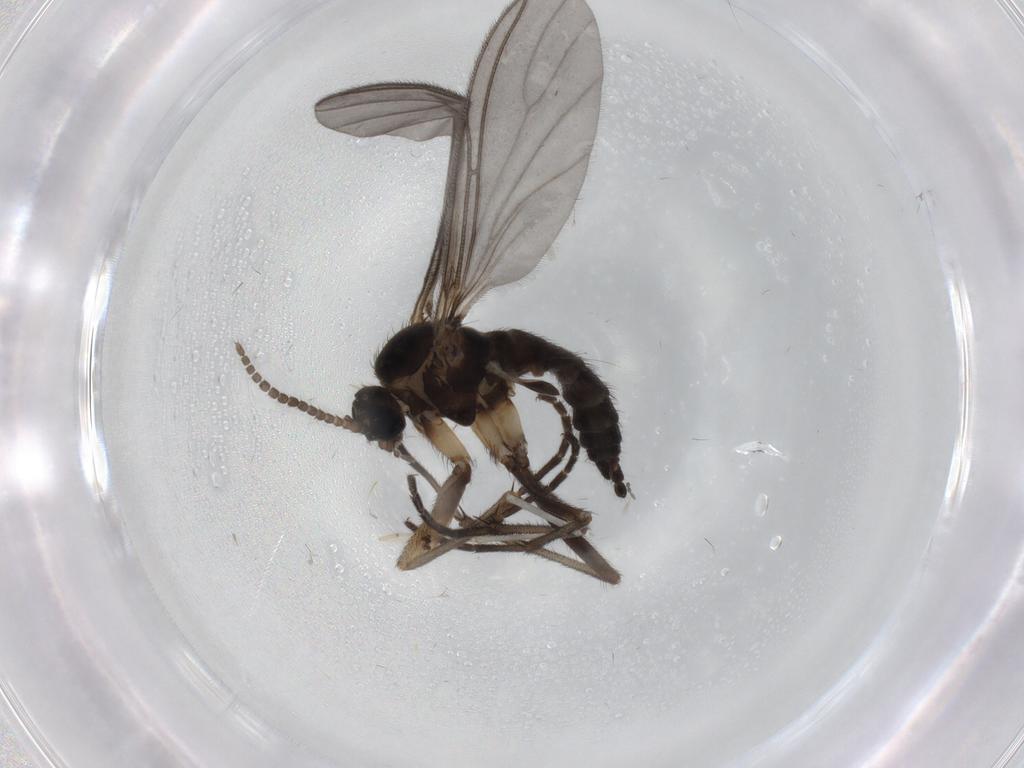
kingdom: Animalia
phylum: Arthropoda
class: Insecta
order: Diptera
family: Sciaridae
